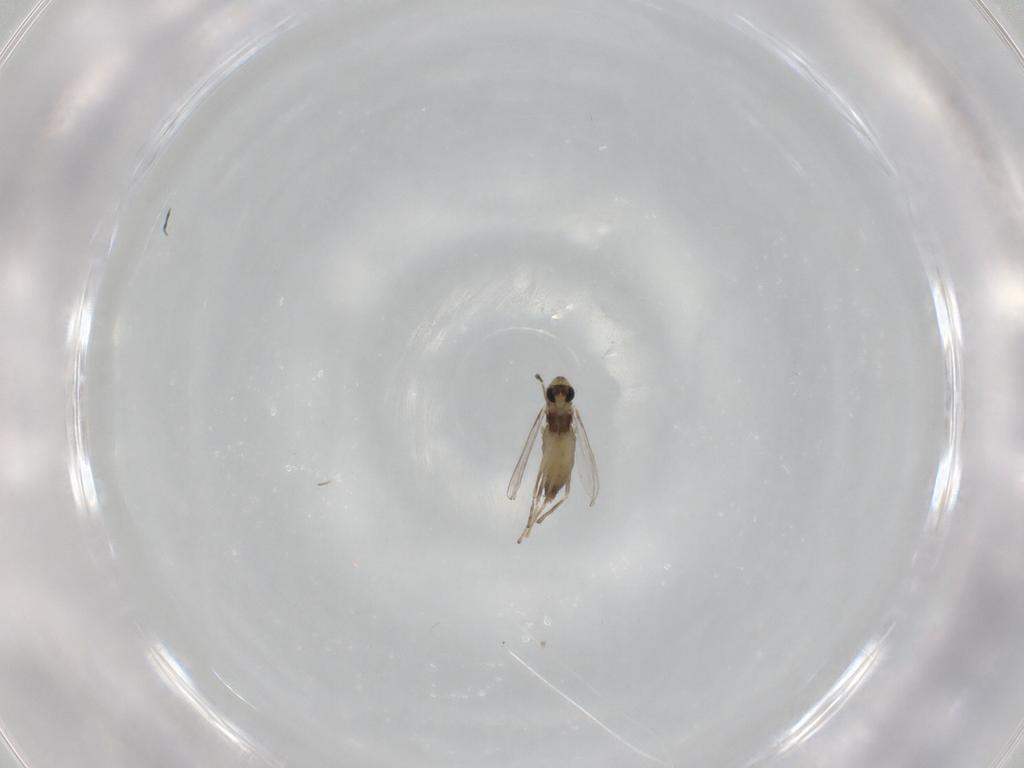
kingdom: Animalia
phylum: Arthropoda
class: Insecta
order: Diptera
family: Chironomidae
